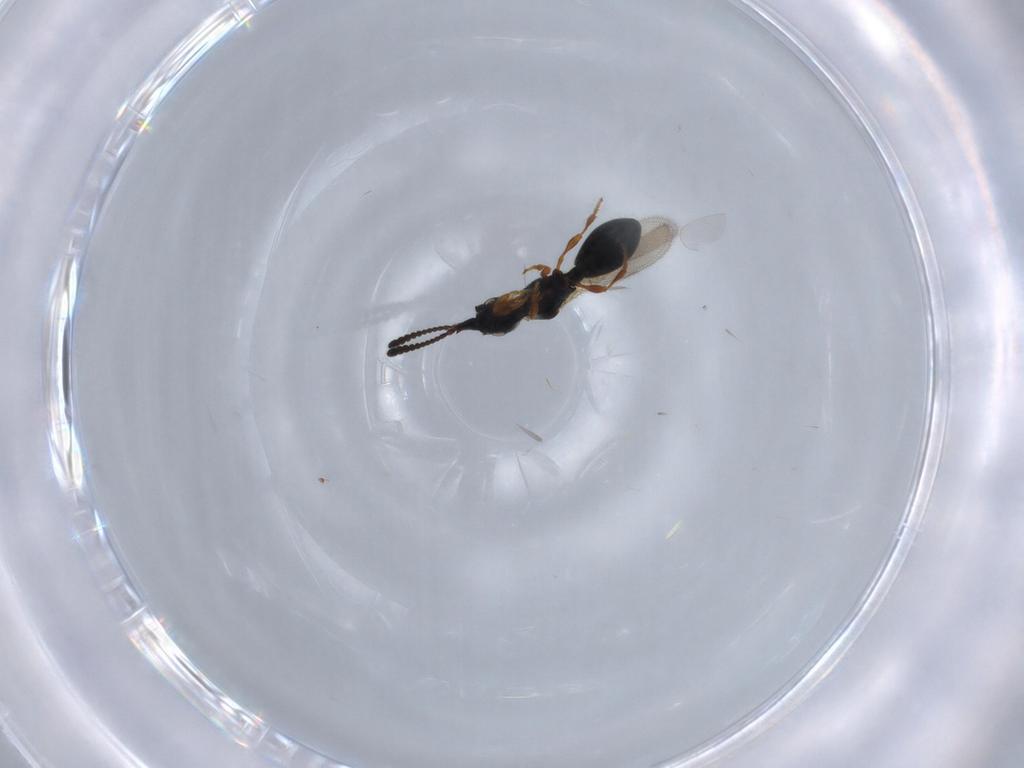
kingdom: Animalia
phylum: Arthropoda
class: Insecta
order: Hymenoptera
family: Diapriidae
